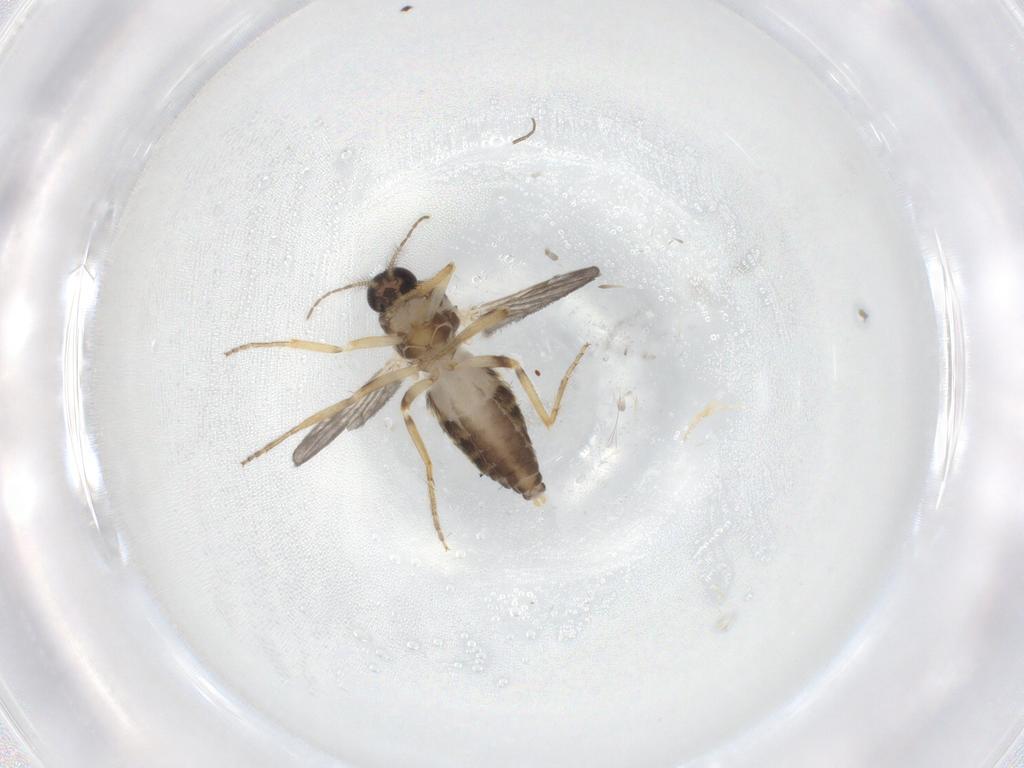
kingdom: Animalia
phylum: Arthropoda
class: Insecta
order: Diptera
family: Ceratopogonidae
